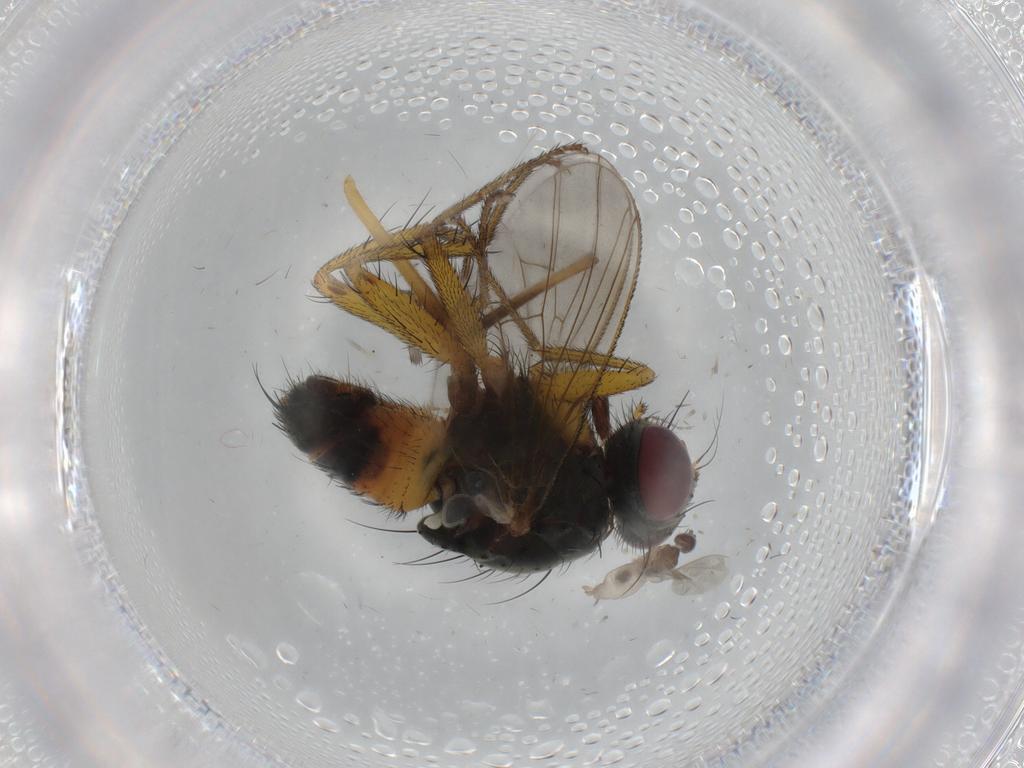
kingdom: Animalia
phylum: Arthropoda
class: Insecta
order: Diptera
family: Muscidae
